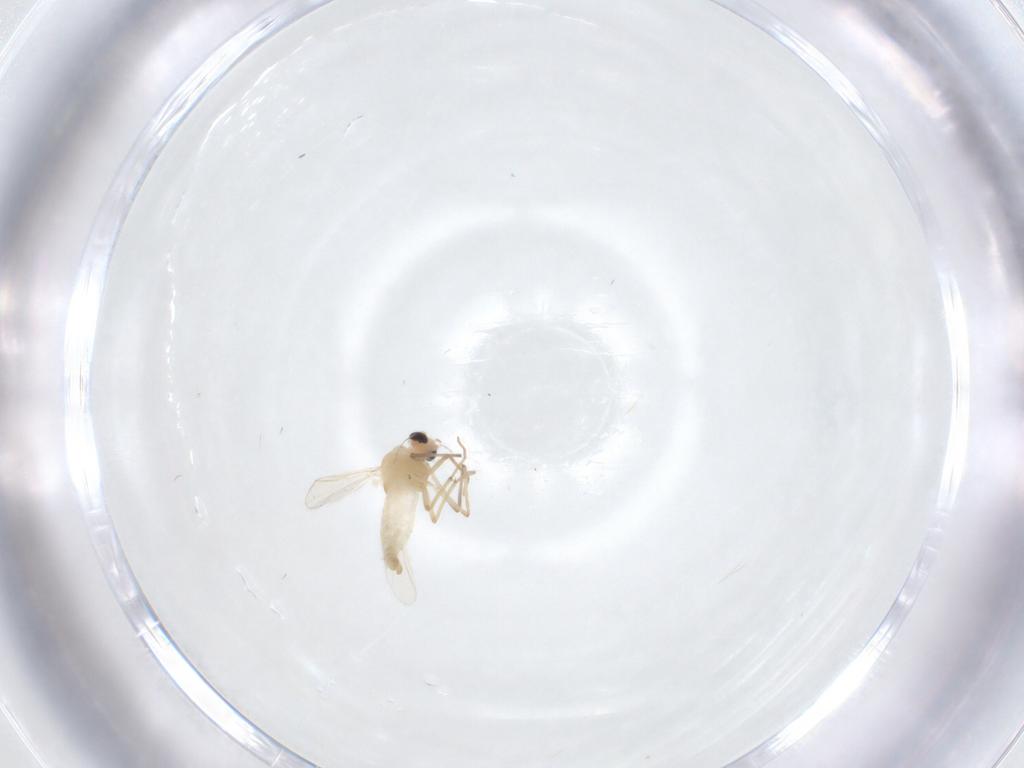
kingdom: Animalia
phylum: Arthropoda
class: Insecta
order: Diptera
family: Chironomidae
